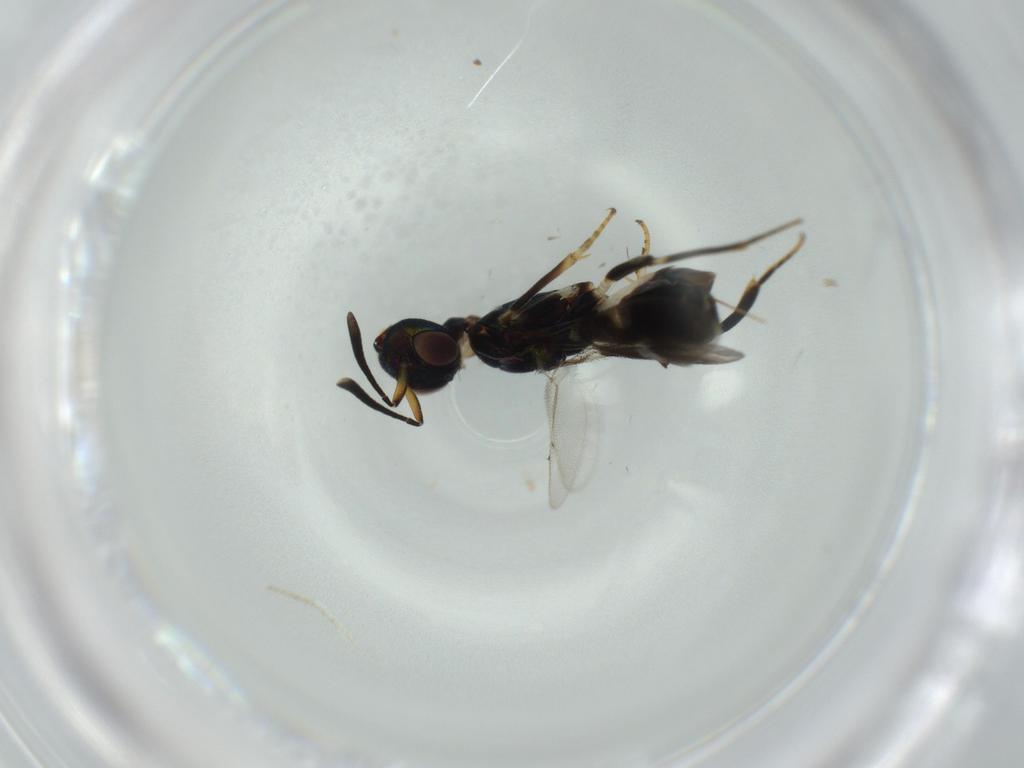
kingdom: Animalia
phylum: Arthropoda
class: Insecta
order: Hymenoptera
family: Eupelmidae
